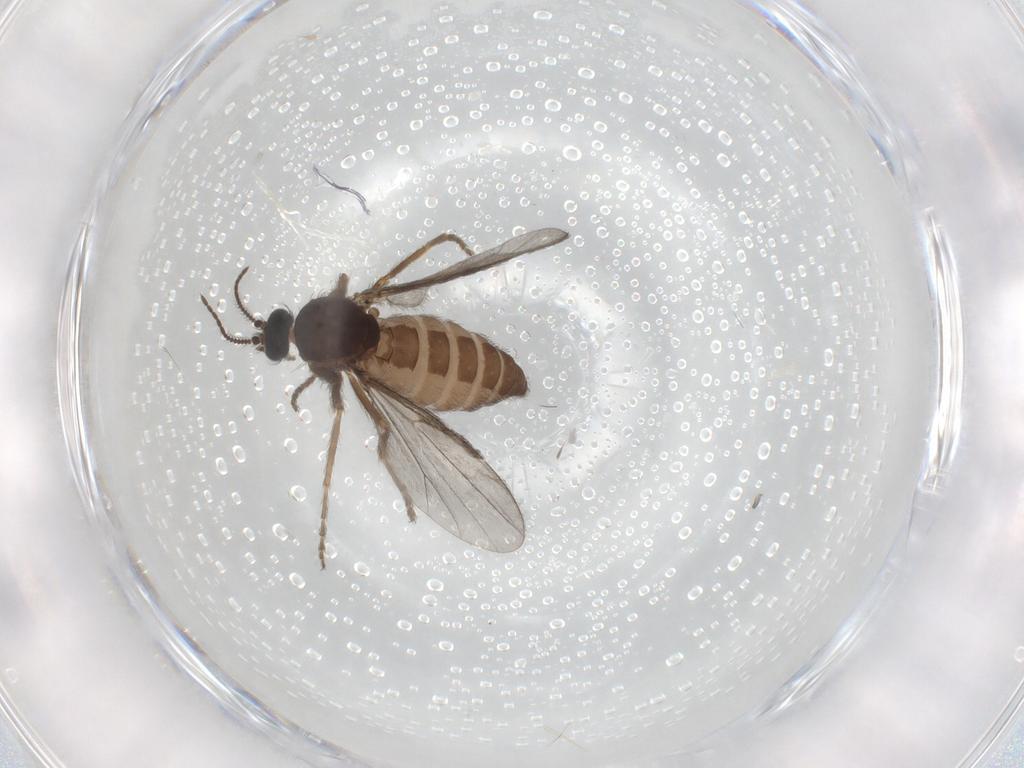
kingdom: Animalia
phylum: Arthropoda
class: Insecta
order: Diptera
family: Ceratopogonidae
